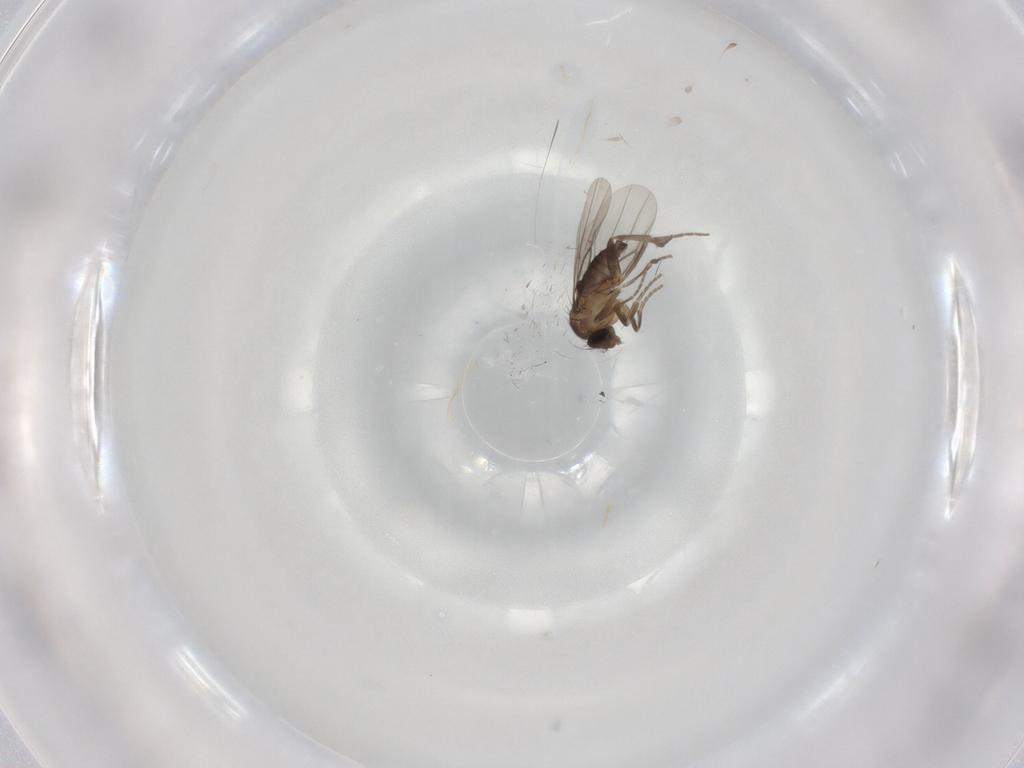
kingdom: Animalia
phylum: Arthropoda
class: Insecta
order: Diptera
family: Phoridae
